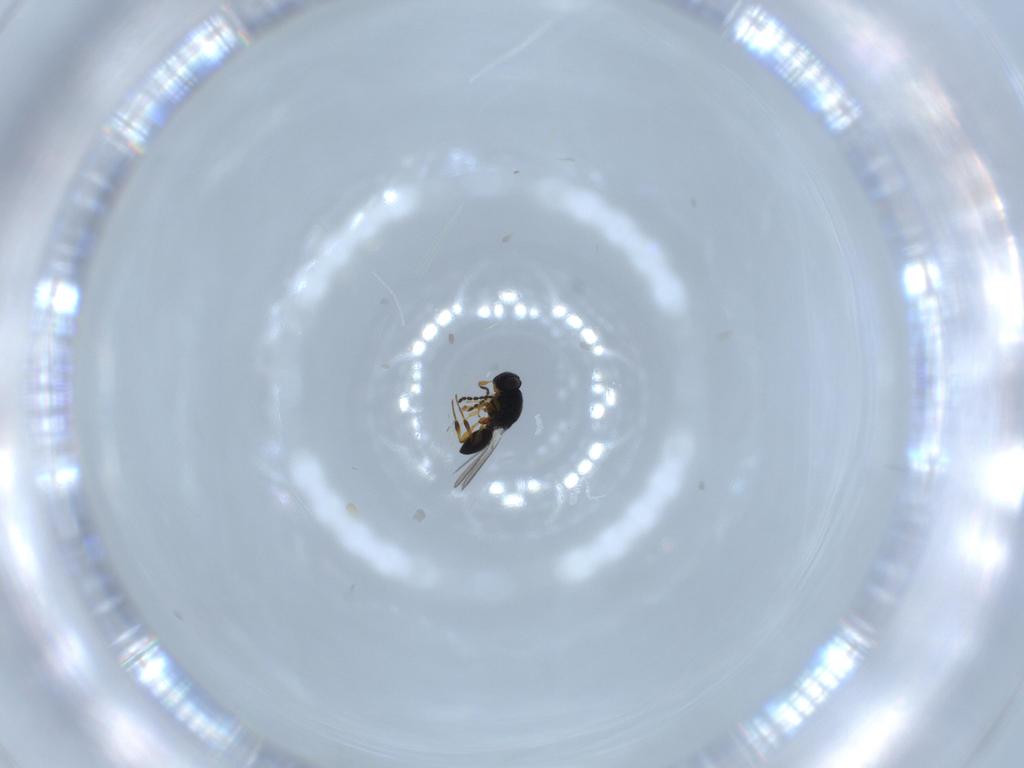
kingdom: Animalia
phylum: Arthropoda
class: Insecta
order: Hymenoptera
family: Platygastridae
